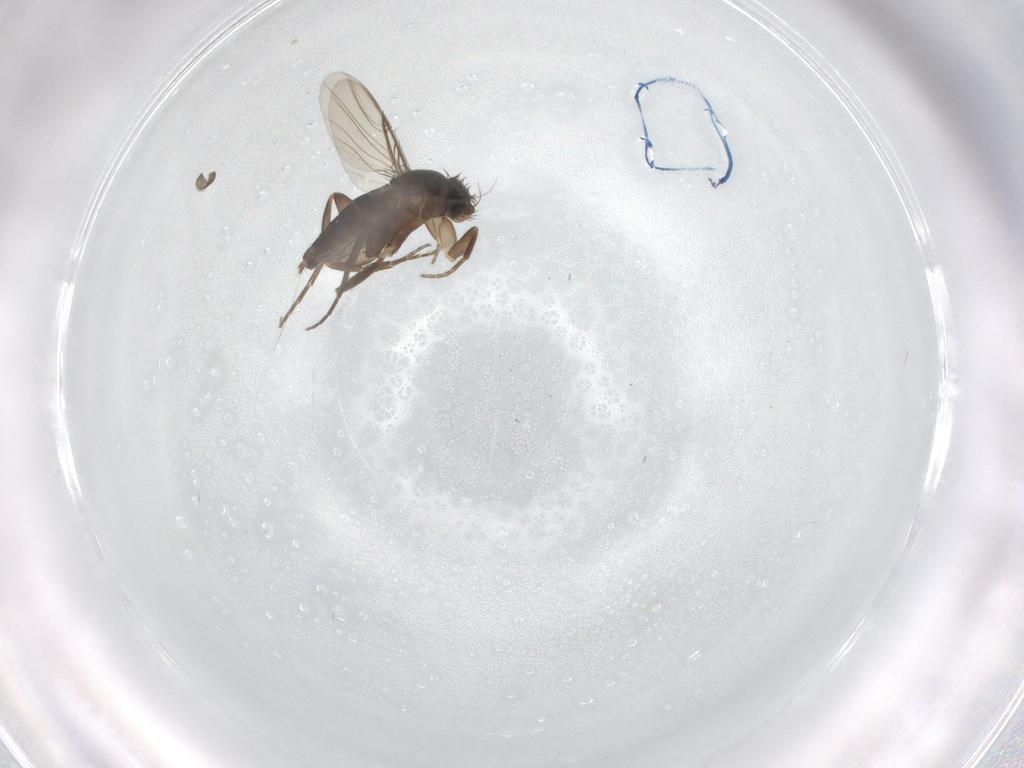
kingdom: Animalia
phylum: Arthropoda
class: Insecta
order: Diptera
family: Phoridae
